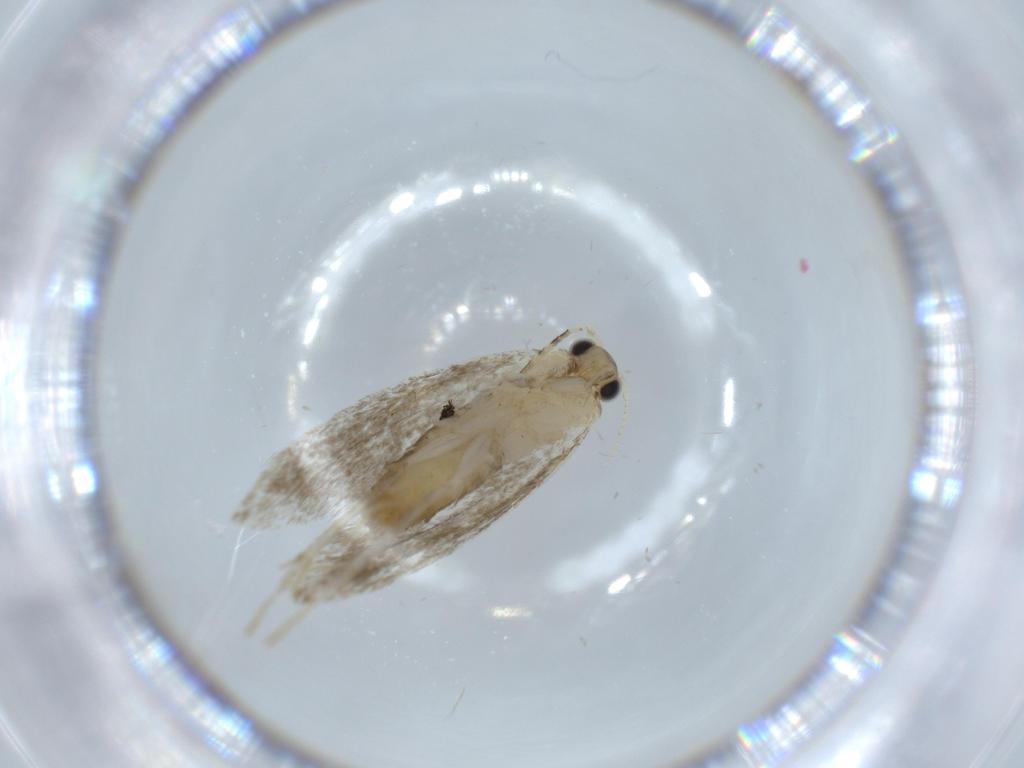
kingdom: Animalia
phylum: Arthropoda
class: Insecta
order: Lepidoptera
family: Tineidae
